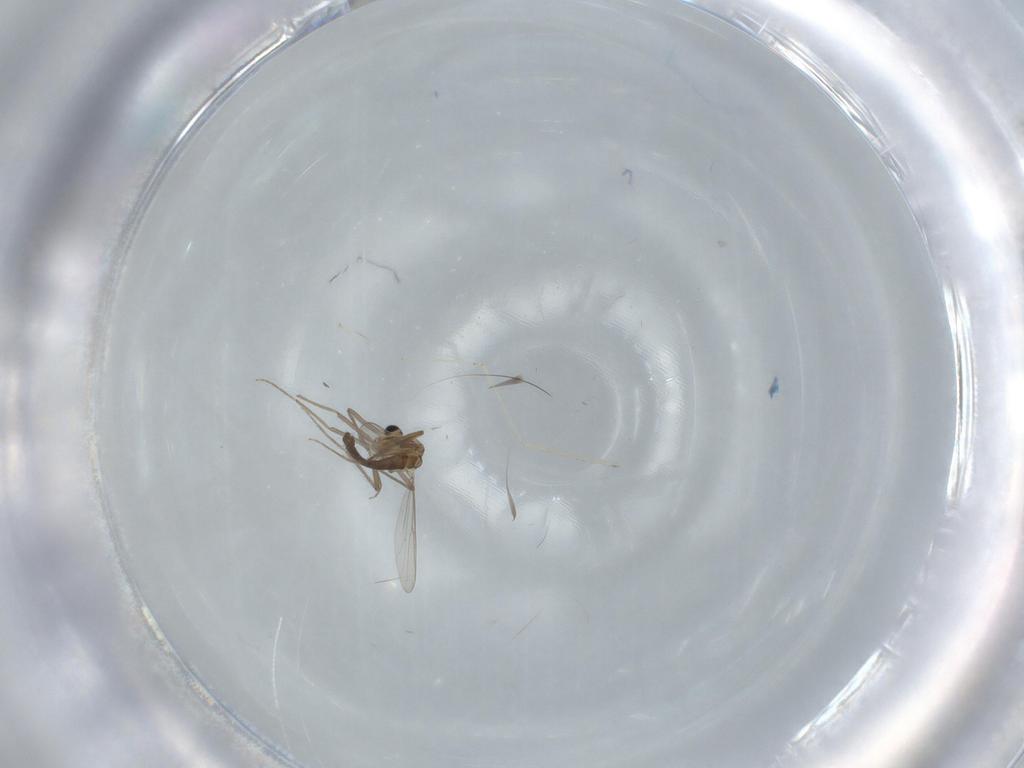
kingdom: Animalia
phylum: Arthropoda
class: Insecta
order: Diptera
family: Chironomidae
